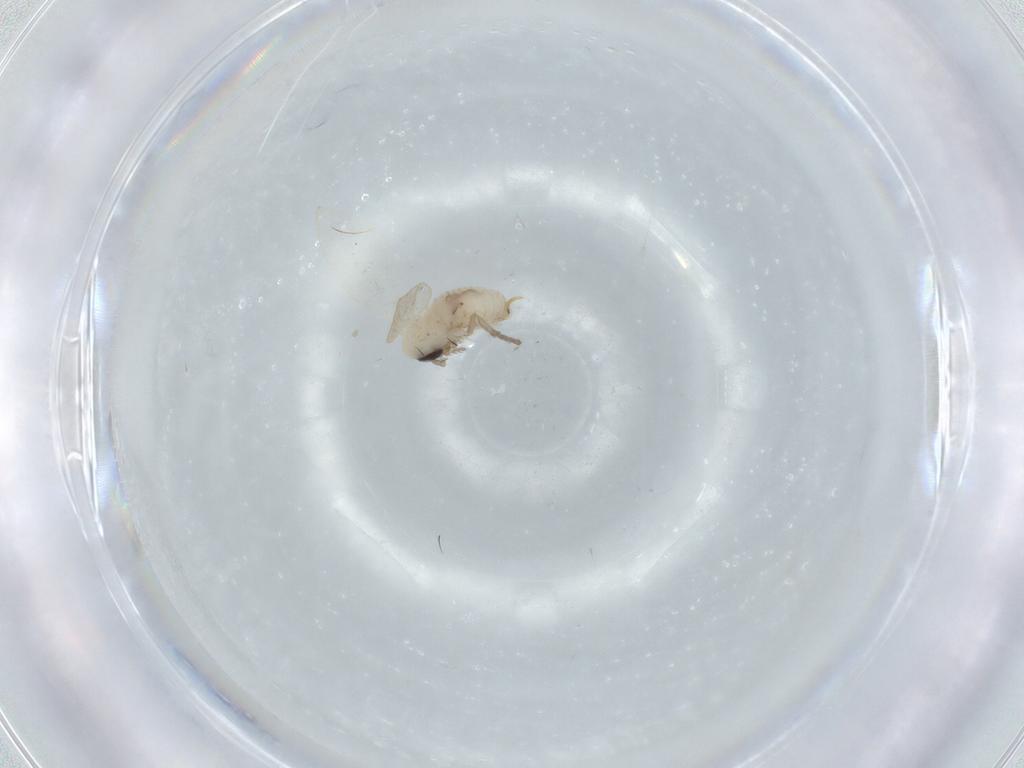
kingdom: Animalia
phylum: Arthropoda
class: Insecta
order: Diptera
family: Psychodidae
